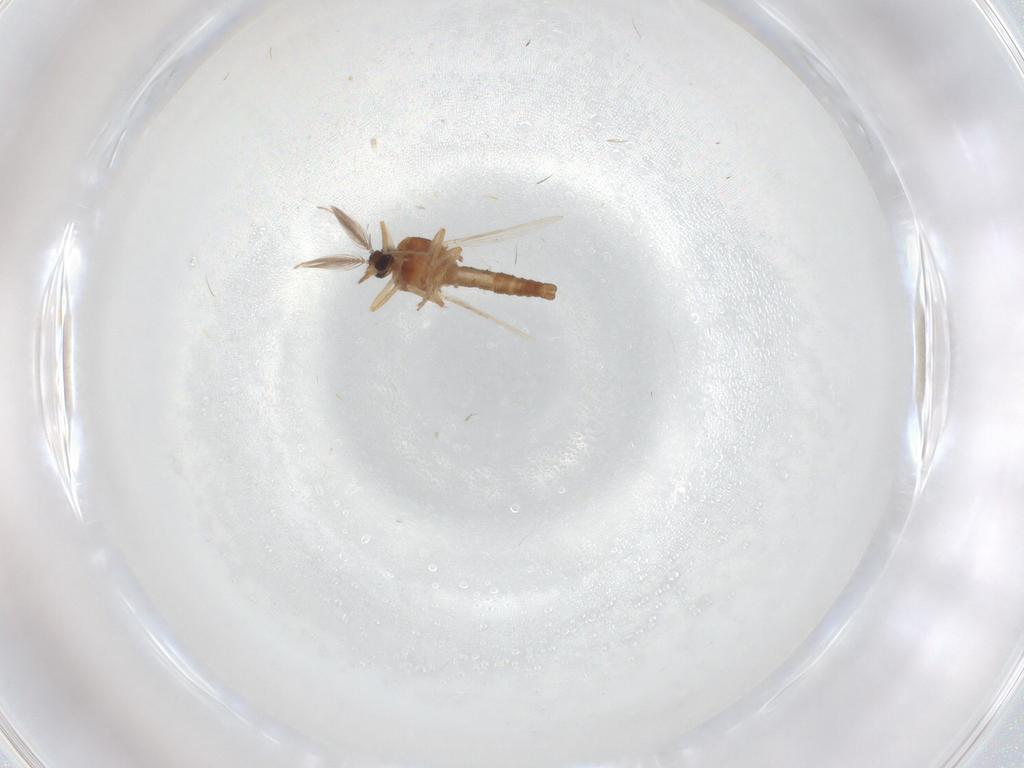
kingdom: Animalia
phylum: Arthropoda
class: Insecta
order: Diptera
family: Ceratopogonidae
